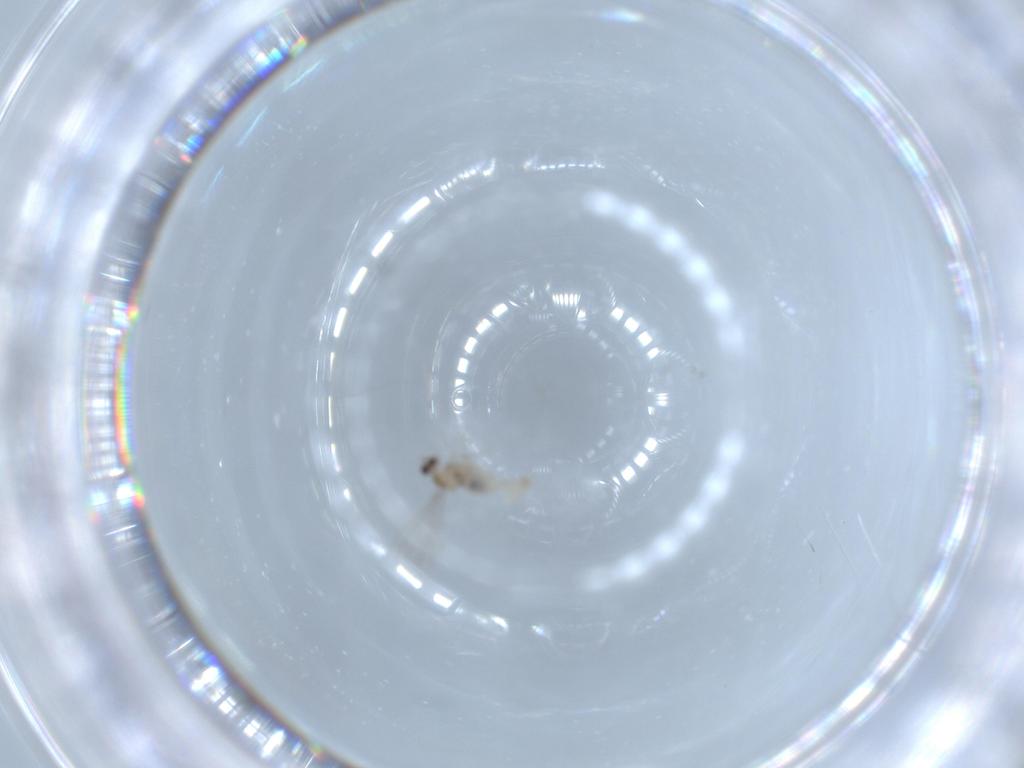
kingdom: Animalia
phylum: Arthropoda
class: Insecta
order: Diptera
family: Asilidae
